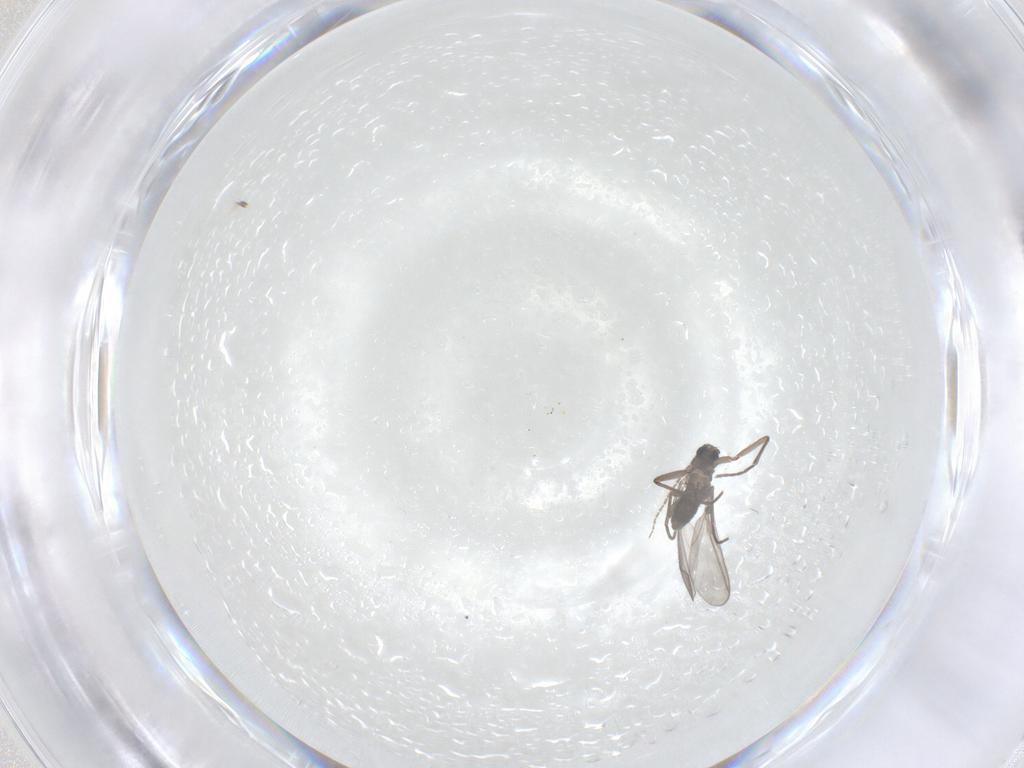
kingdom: Animalia
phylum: Arthropoda
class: Insecta
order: Diptera
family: Sciaridae
